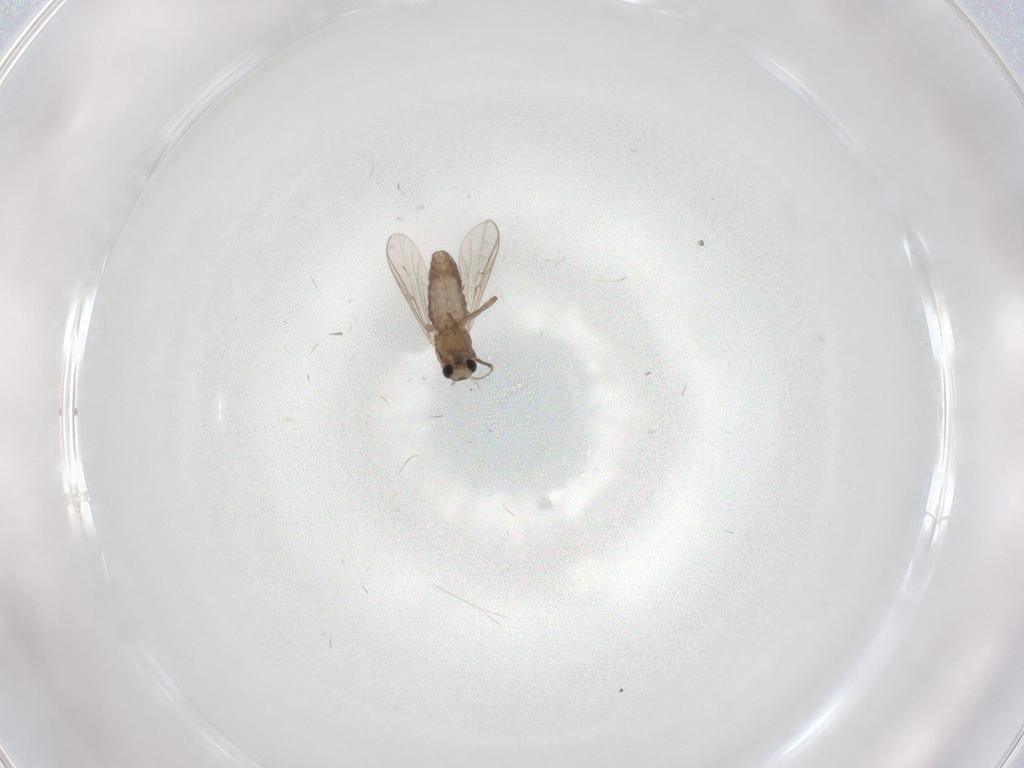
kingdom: Animalia
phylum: Arthropoda
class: Insecta
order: Diptera
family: Chironomidae
